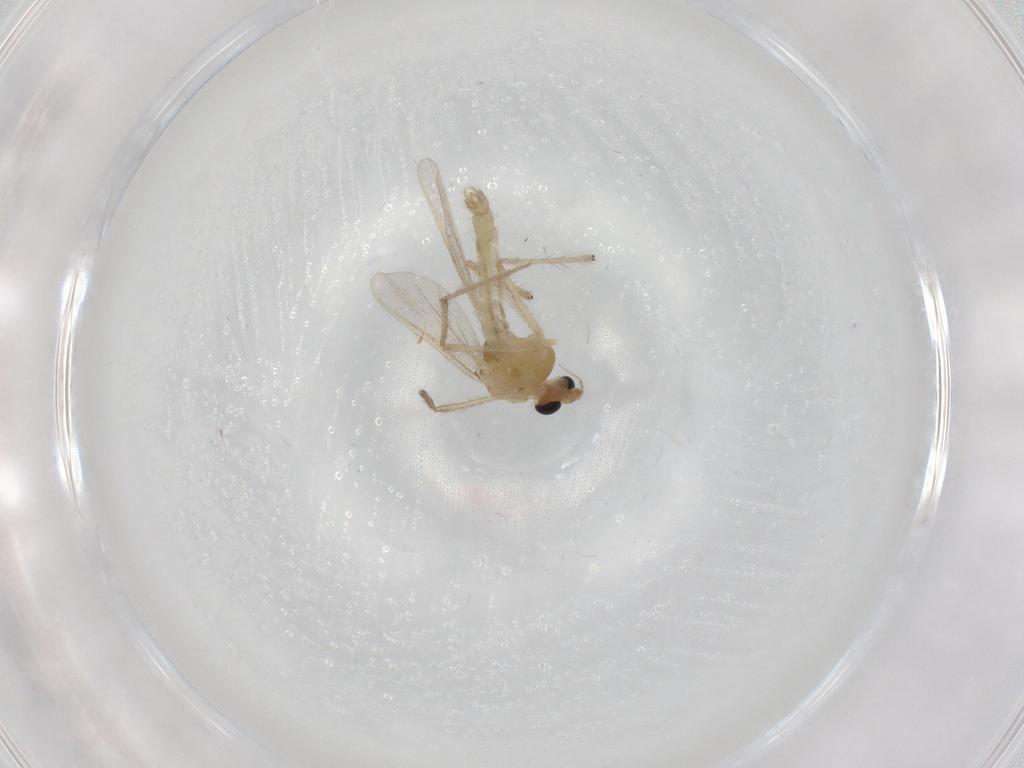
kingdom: Animalia
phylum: Arthropoda
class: Insecta
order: Diptera
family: Chironomidae
